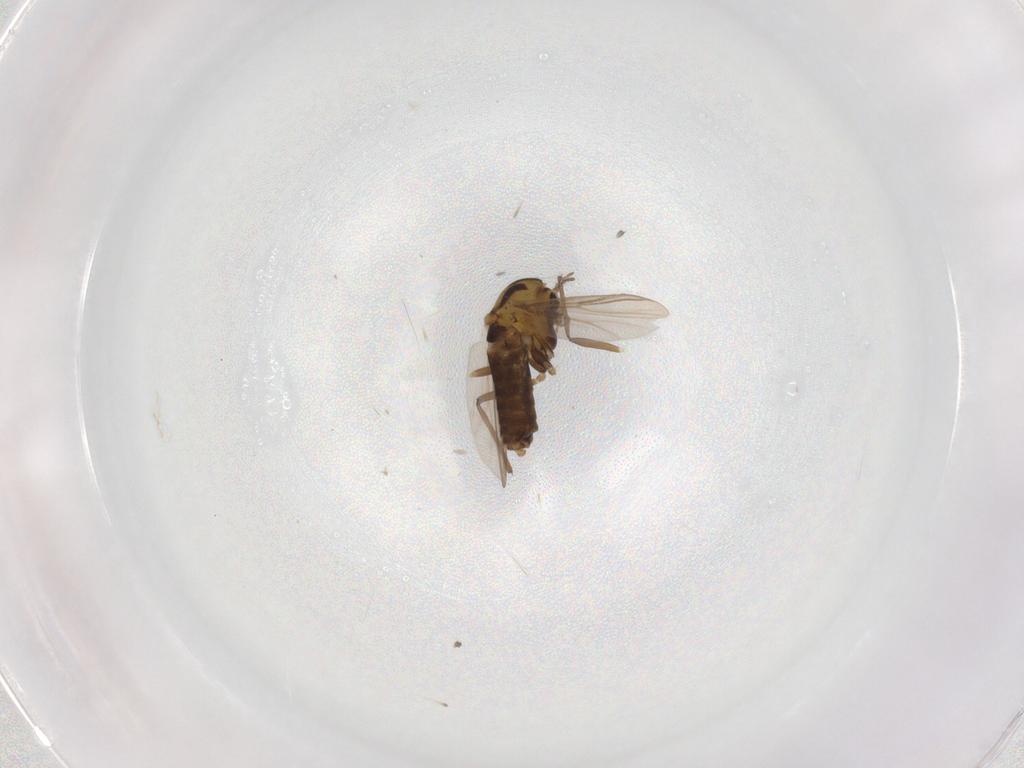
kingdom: Animalia
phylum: Arthropoda
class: Insecta
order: Diptera
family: Chironomidae
